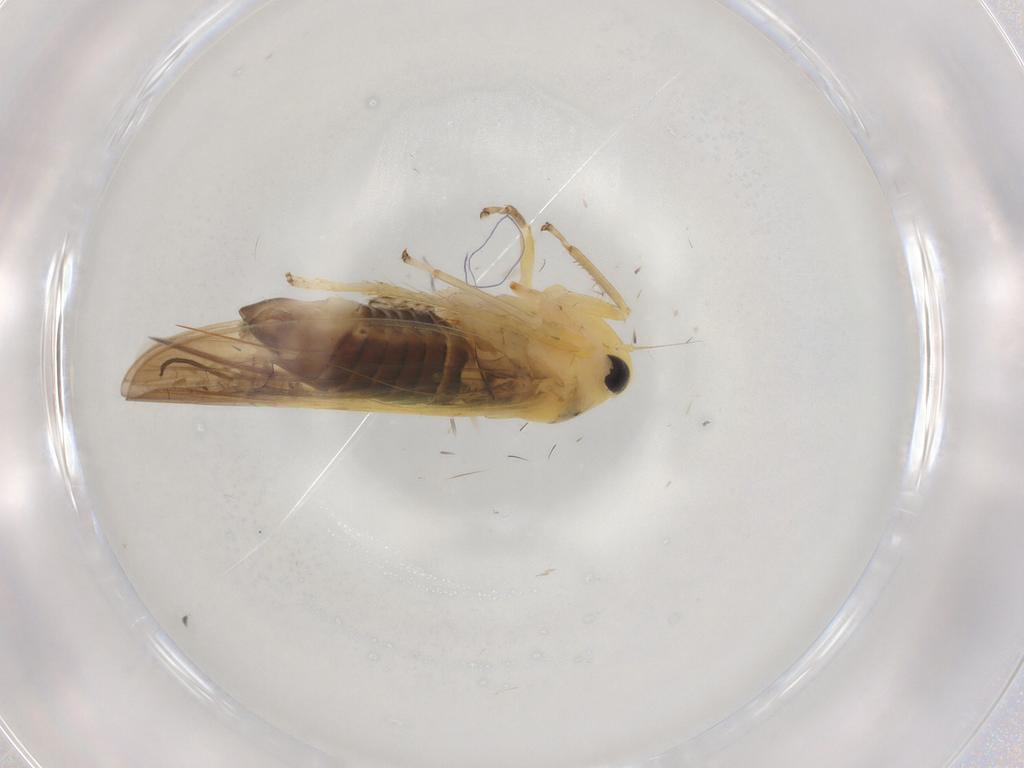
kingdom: Animalia
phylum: Arthropoda
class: Insecta
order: Hemiptera
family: Cicadellidae
